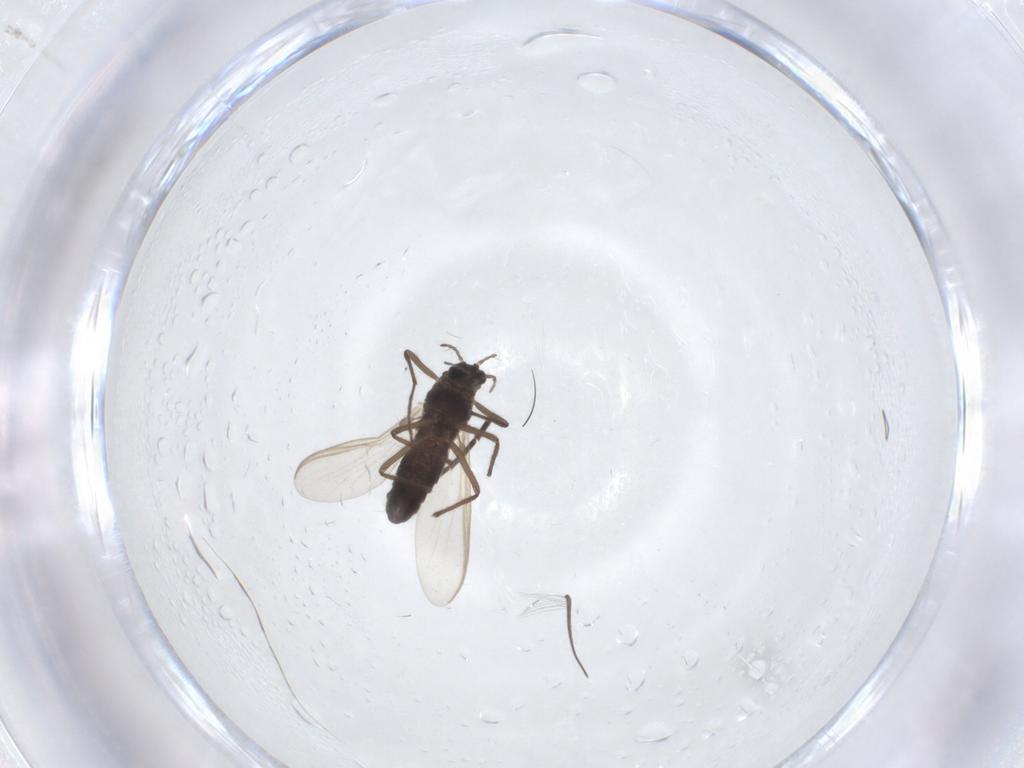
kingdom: Animalia
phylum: Arthropoda
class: Insecta
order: Diptera
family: Sciaridae
